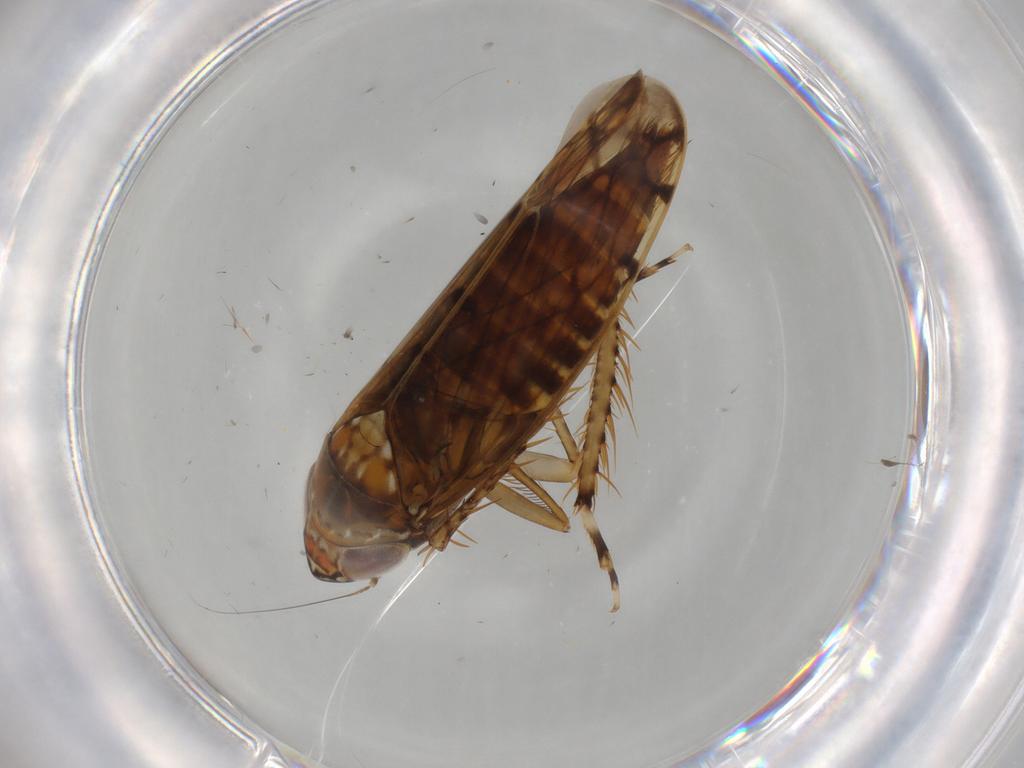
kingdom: Animalia
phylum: Arthropoda
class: Insecta
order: Hemiptera
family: Cicadellidae
